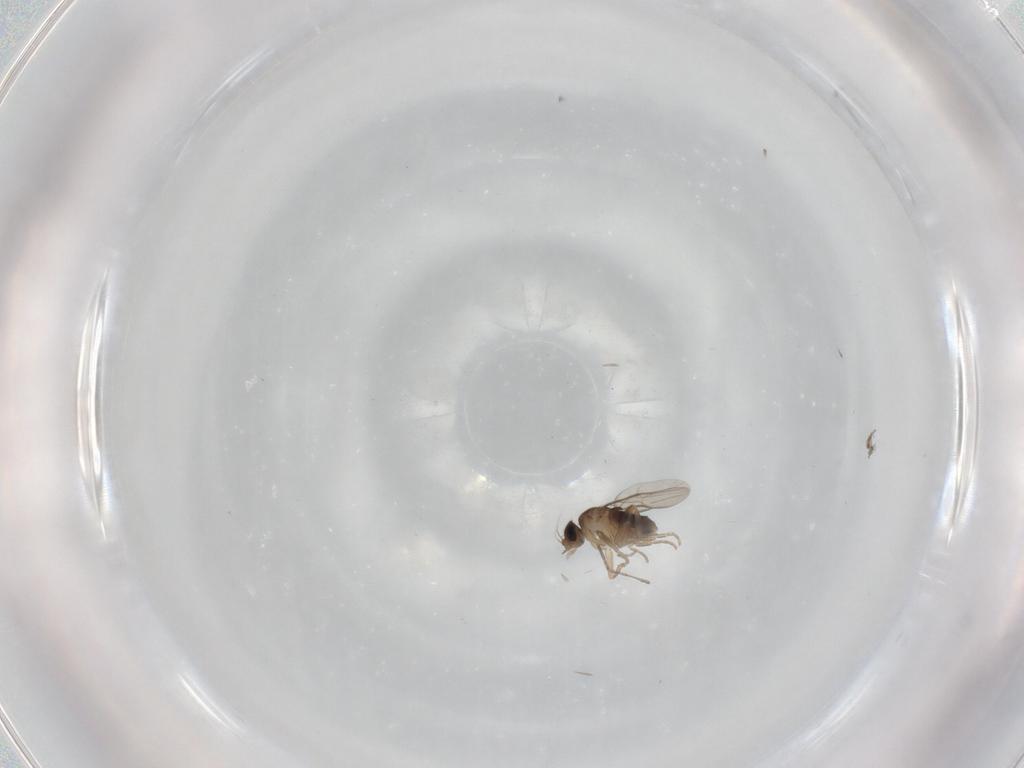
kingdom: Animalia
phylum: Arthropoda
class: Insecta
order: Diptera
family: Phoridae
